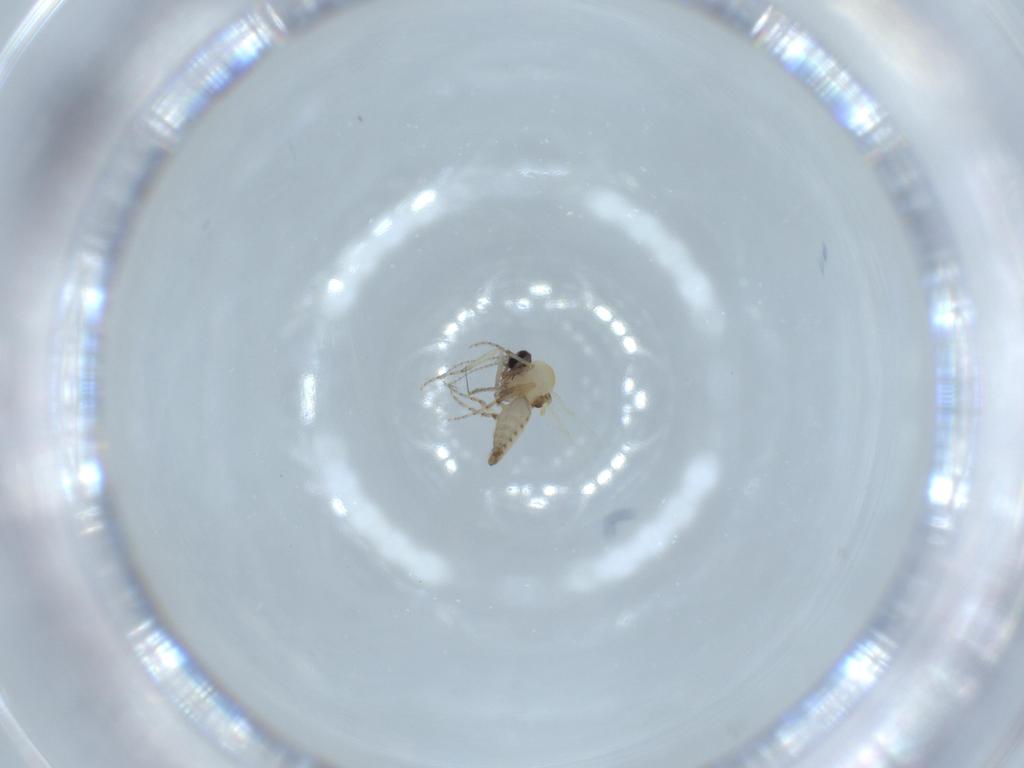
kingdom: Animalia
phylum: Arthropoda
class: Insecta
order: Diptera
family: Ceratopogonidae
